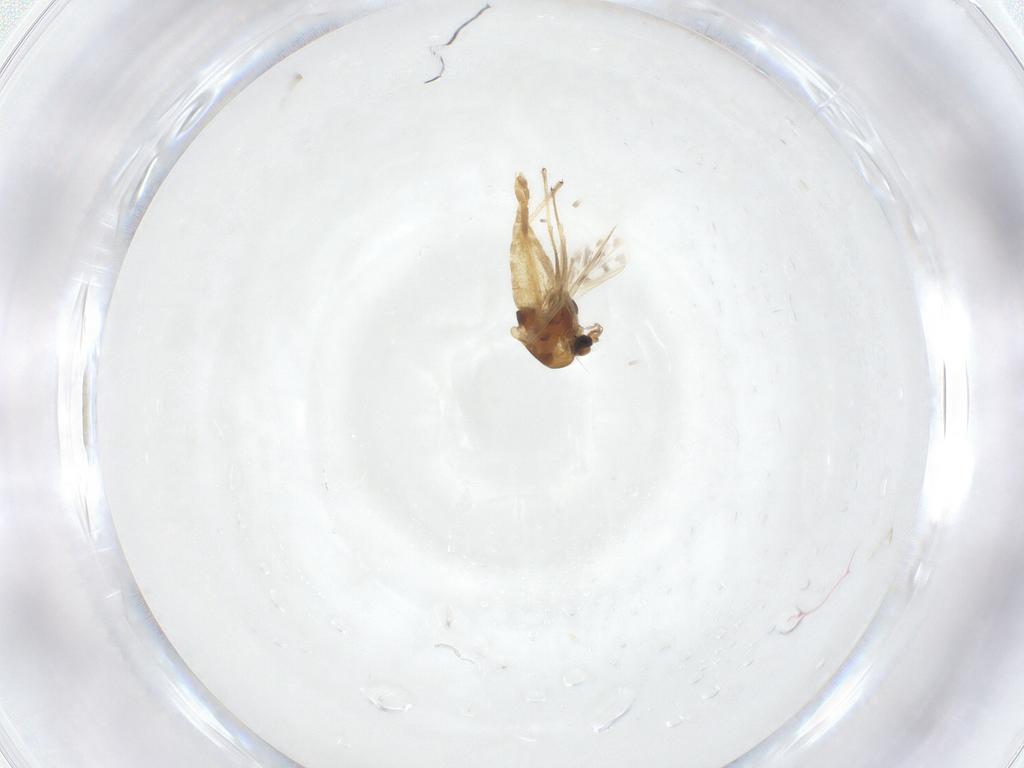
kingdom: Animalia
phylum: Arthropoda
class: Insecta
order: Diptera
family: Chironomidae
